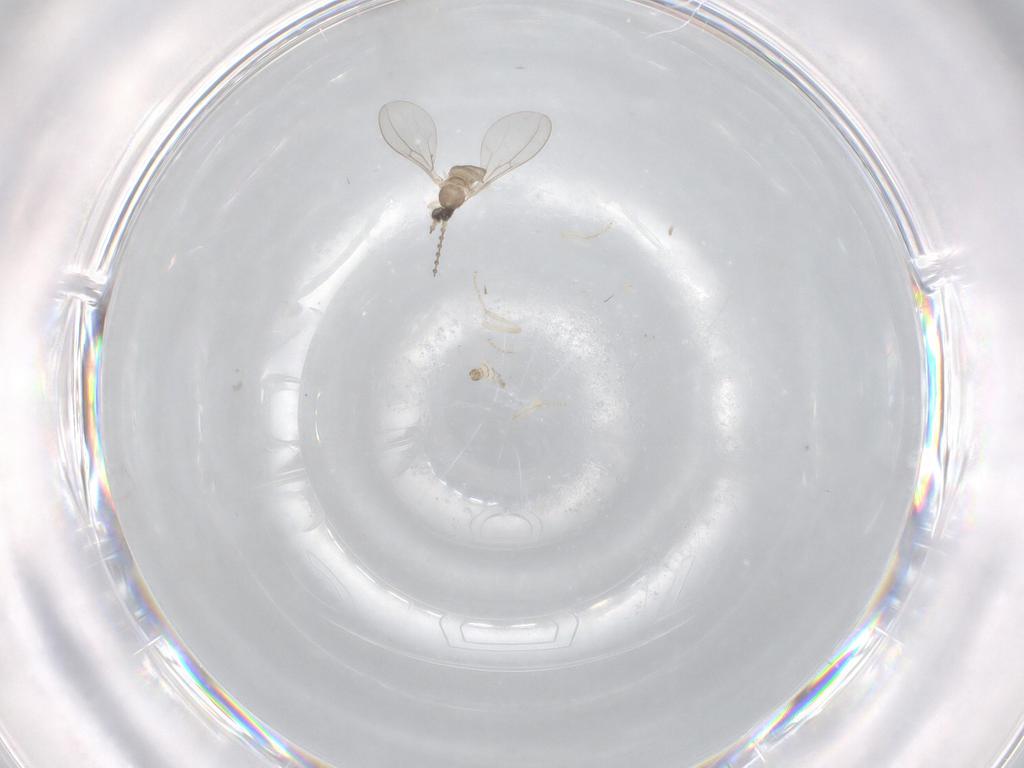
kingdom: Animalia
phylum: Arthropoda
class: Insecta
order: Diptera
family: Cecidomyiidae
